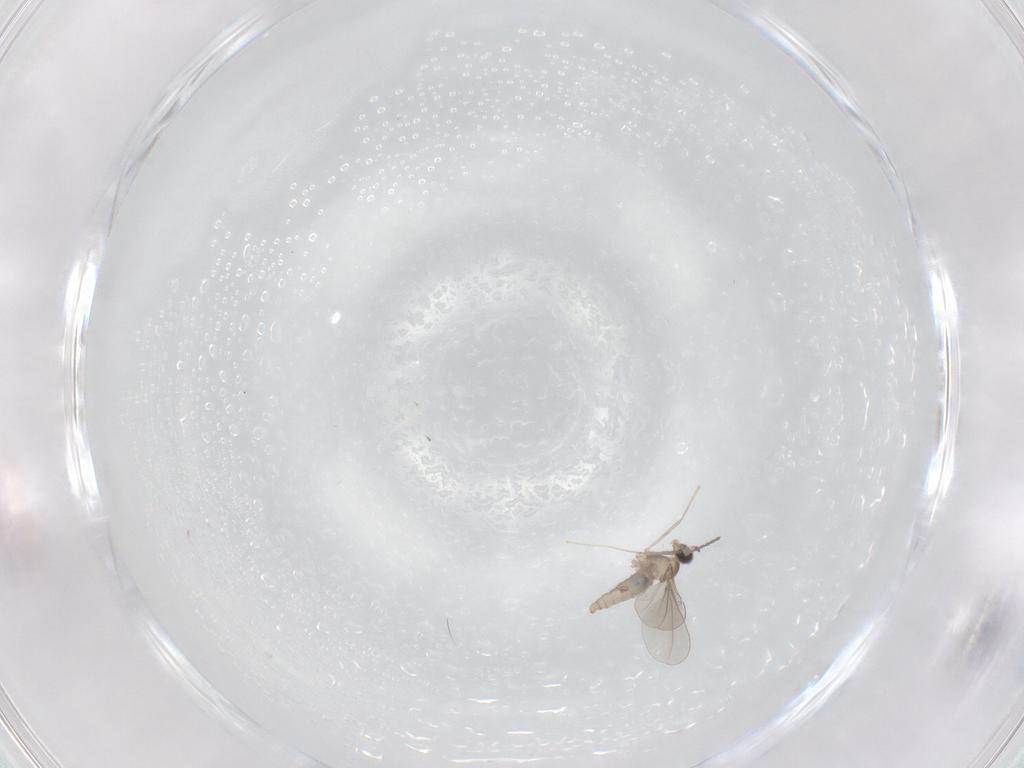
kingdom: Animalia
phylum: Arthropoda
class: Insecta
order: Diptera
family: Cecidomyiidae
